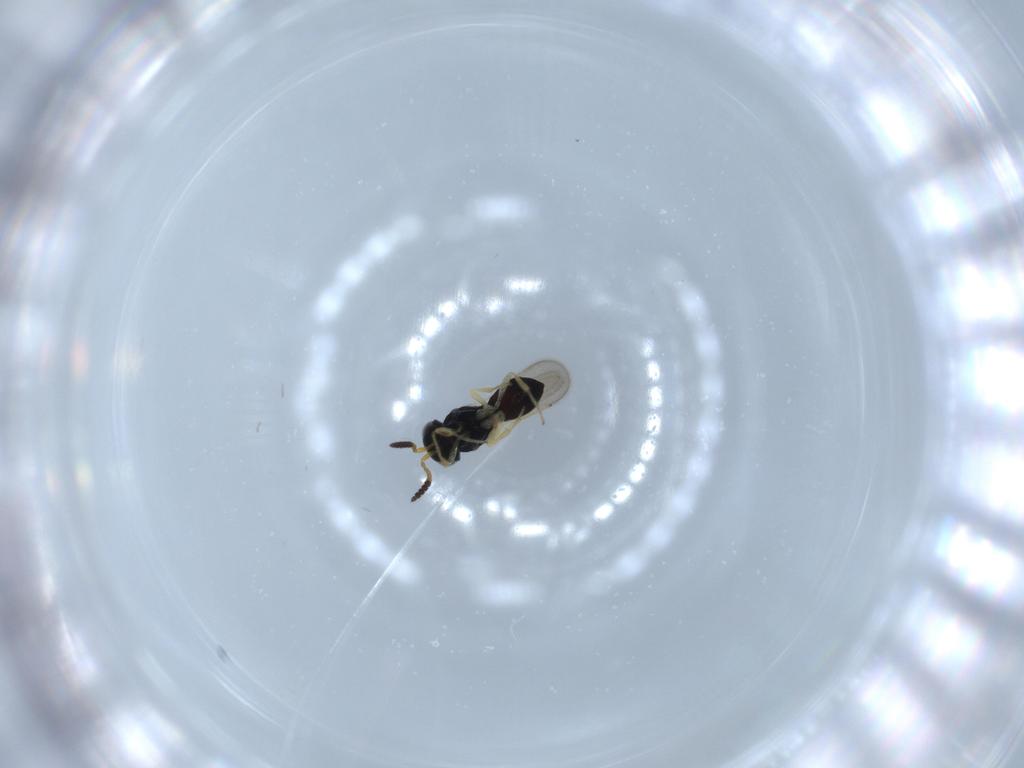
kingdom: Animalia
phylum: Arthropoda
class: Insecta
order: Hymenoptera
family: Scelionidae
